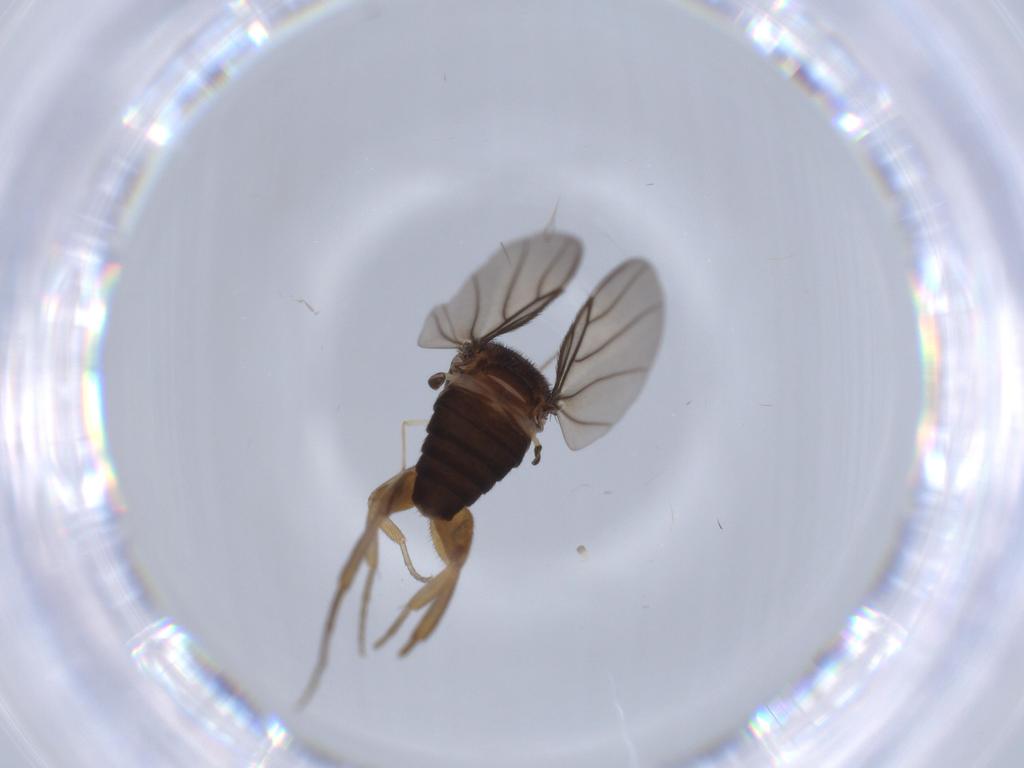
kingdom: Animalia
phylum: Arthropoda
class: Insecta
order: Diptera
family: Chironomidae
